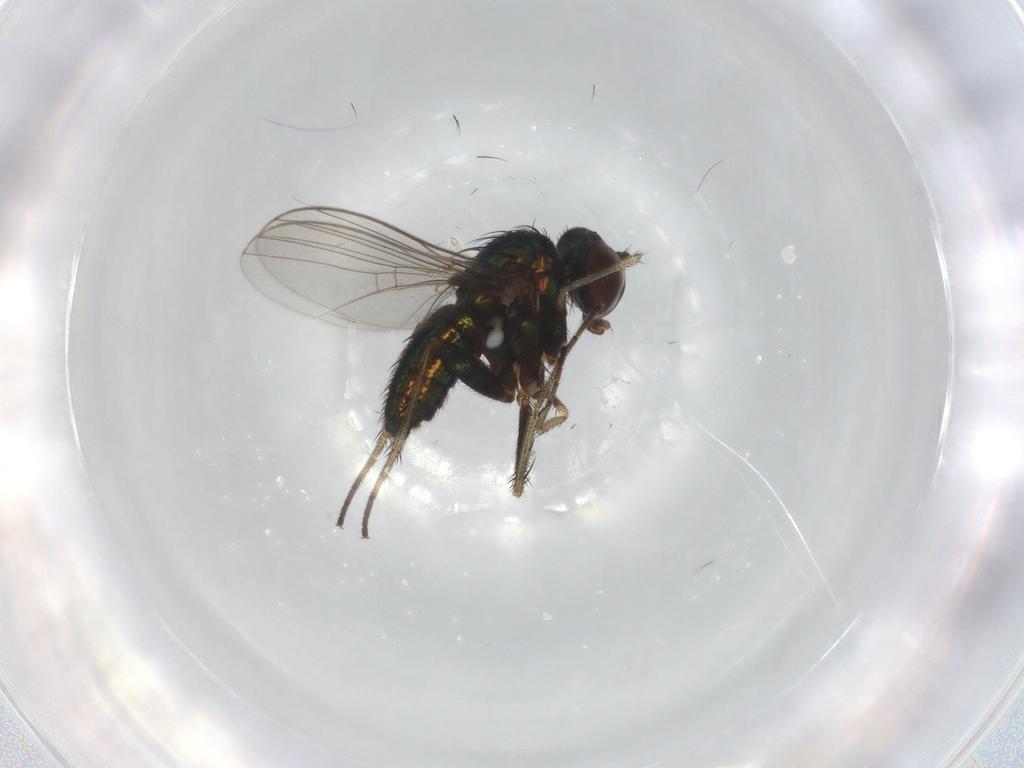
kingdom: Animalia
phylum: Arthropoda
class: Insecta
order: Diptera
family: Dolichopodidae
